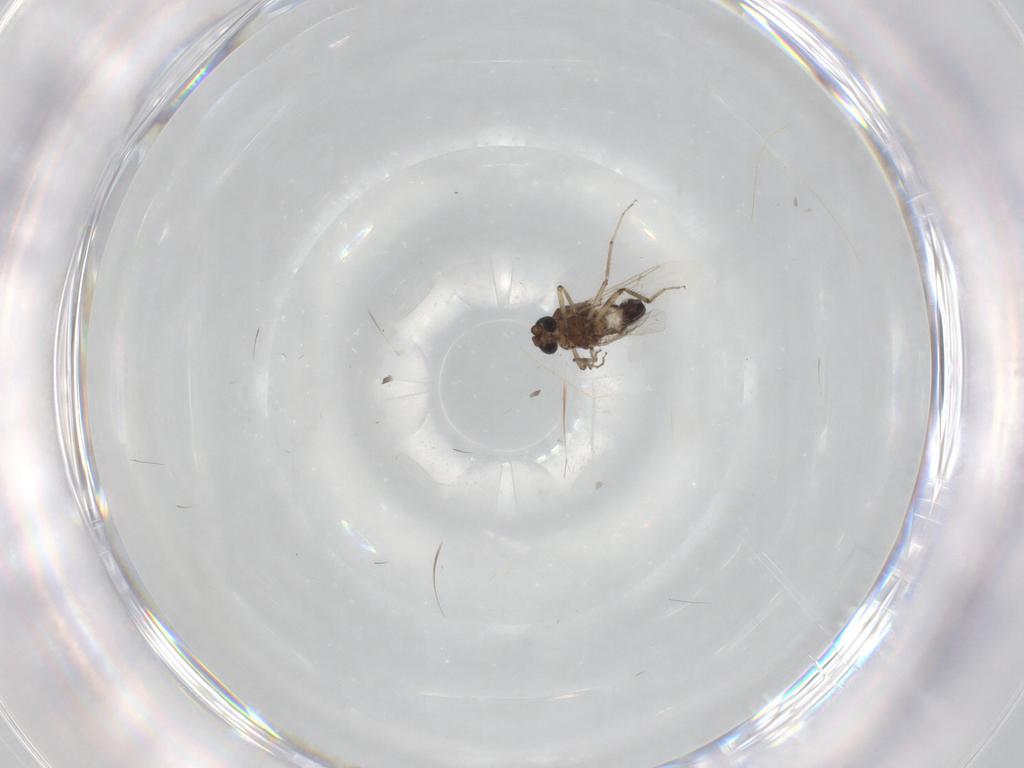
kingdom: Animalia
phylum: Arthropoda
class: Insecta
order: Diptera
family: Ceratopogonidae
